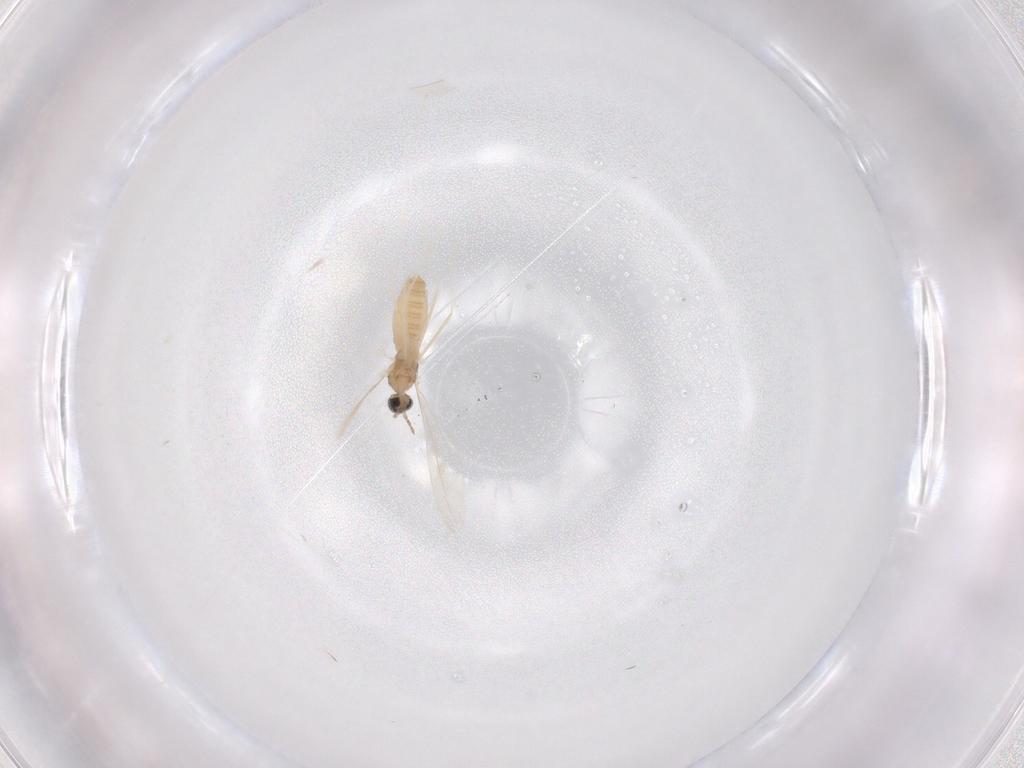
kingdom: Animalia
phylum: Arthropoda
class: Insecta
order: Diptera
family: Cecidomyiidae
